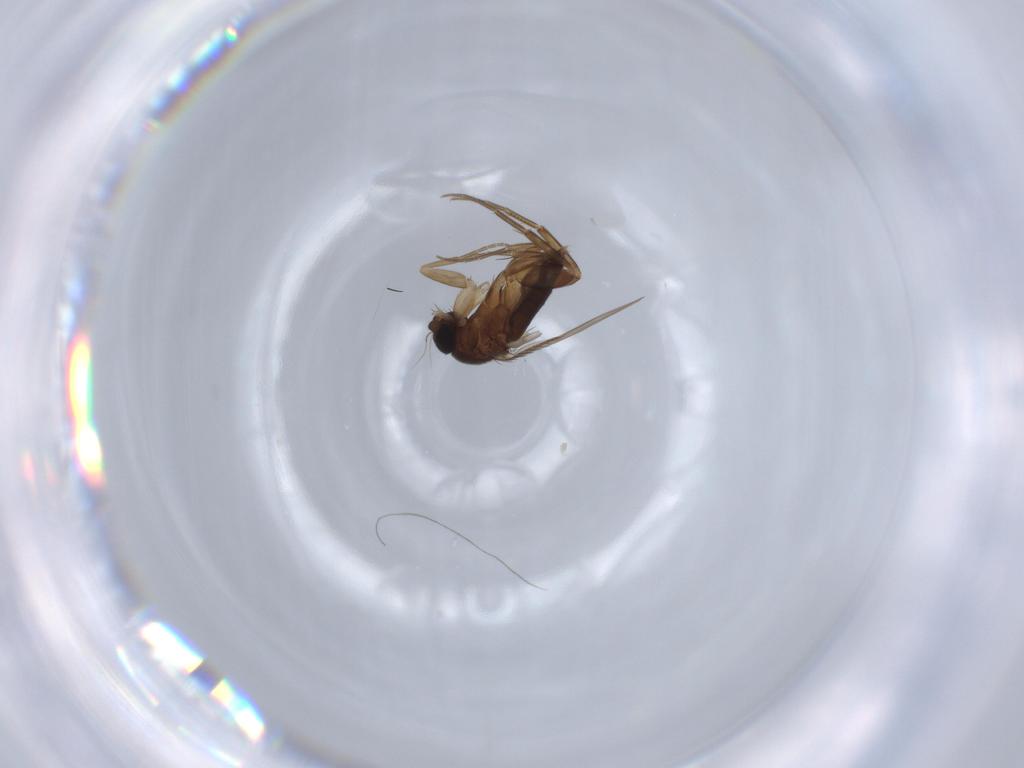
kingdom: Animalia
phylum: Arthropoda
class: Insecta
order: Diptera
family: Phoridae
